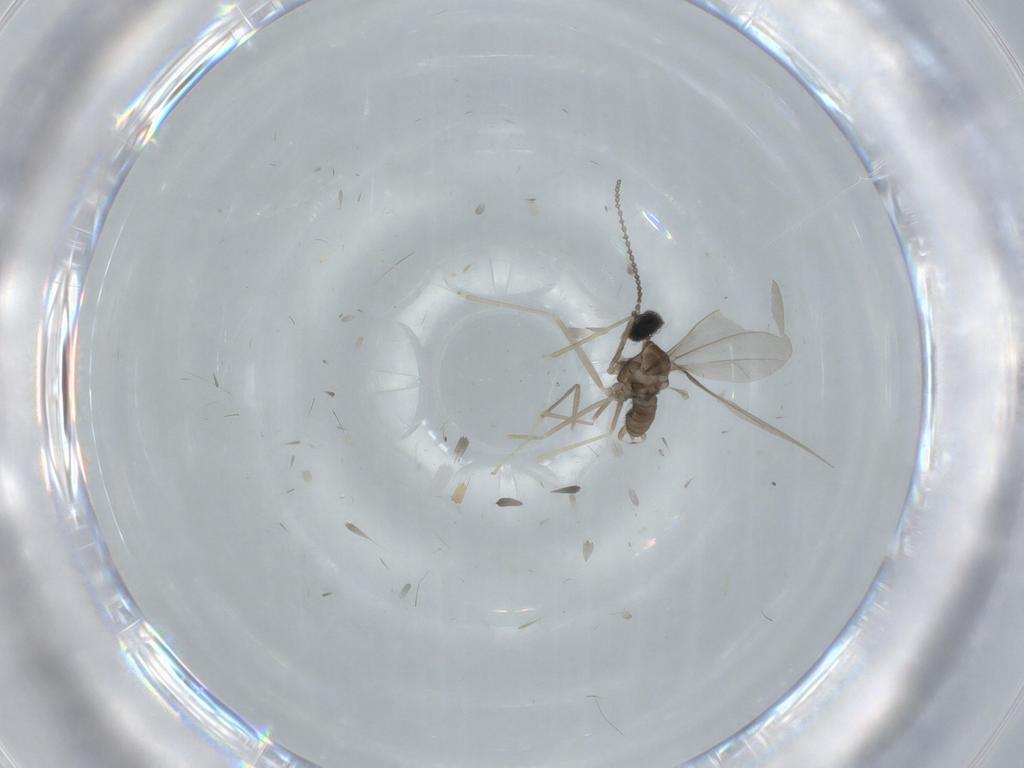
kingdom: Animalia
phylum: Arthropoda
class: Insecta
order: Diptera
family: Cecidomyiidae
